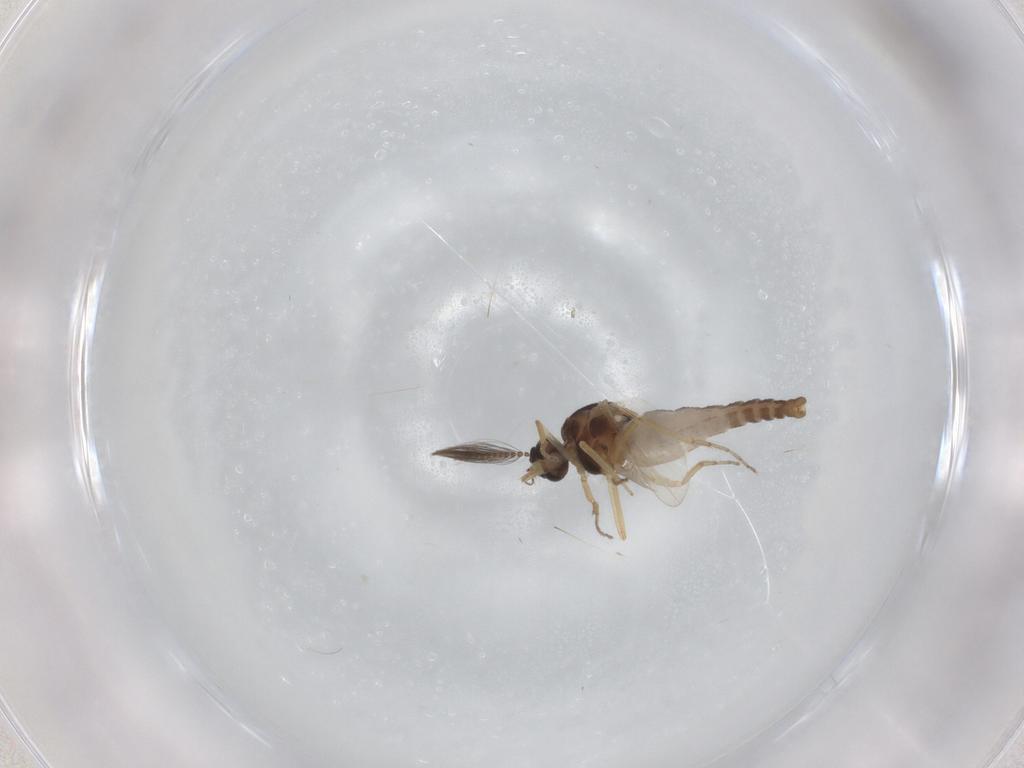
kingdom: Animalia
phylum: Arthropoda
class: Insecta
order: Diptera
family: Ceratopogonidae
